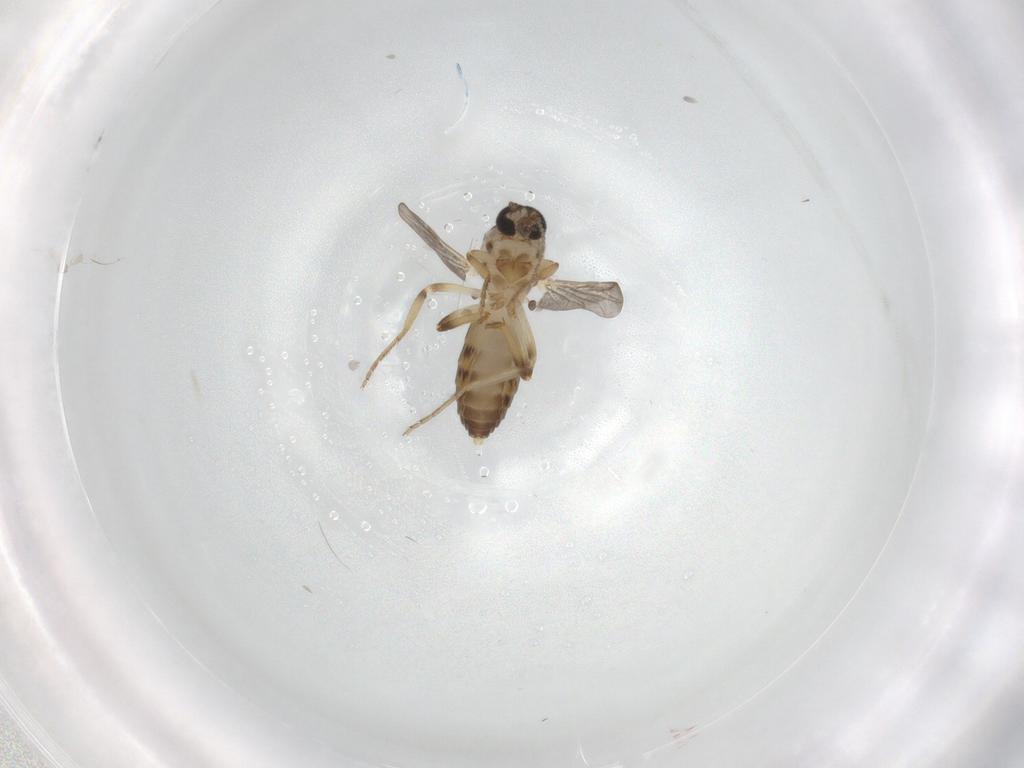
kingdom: Animalia
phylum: Arthropoda
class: Insecta
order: Diptera
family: Ceratopogonidae
